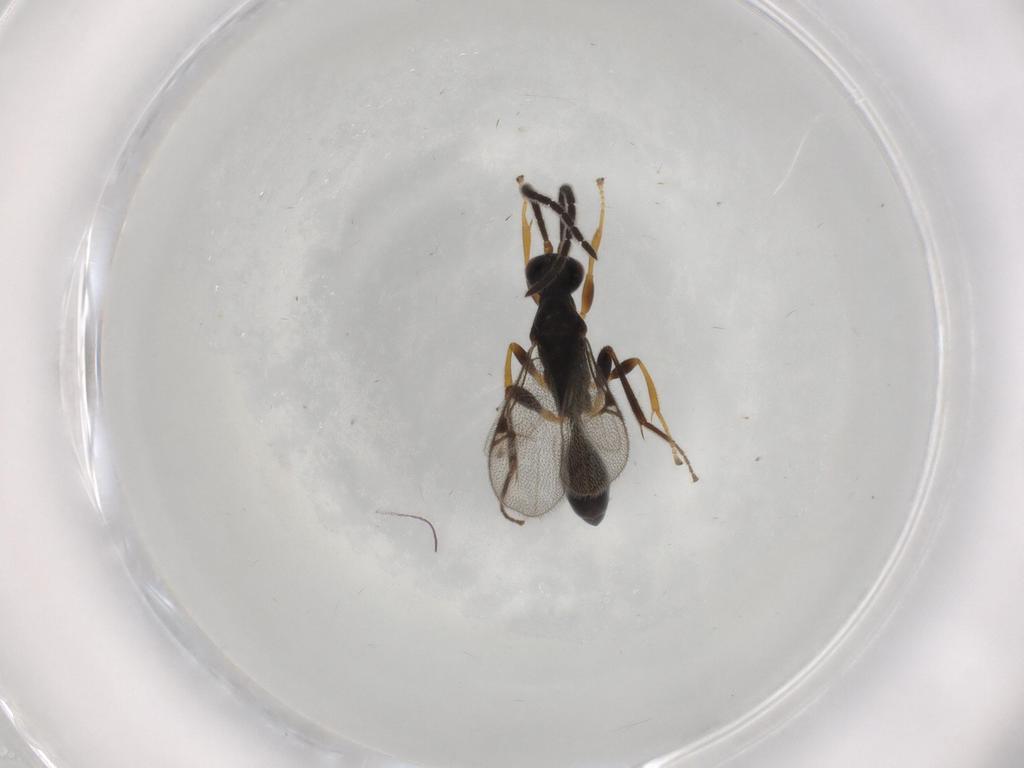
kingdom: Animalia
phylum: Arthropoda
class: Insecta
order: Hymenoptera
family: Proctotrupidae
